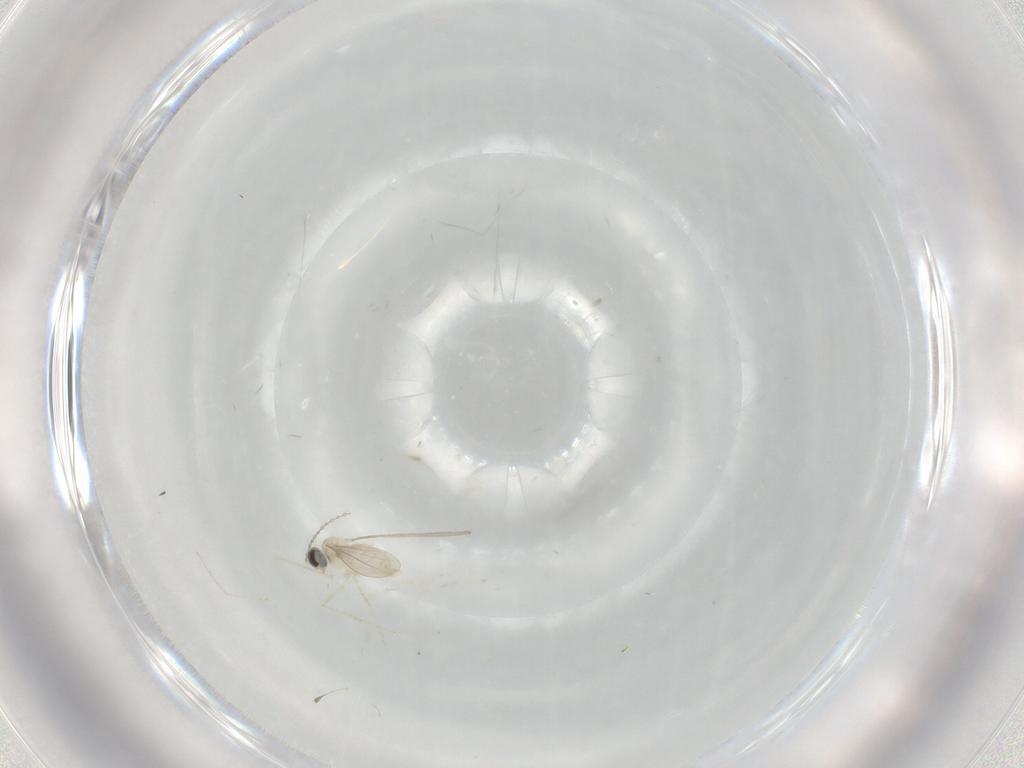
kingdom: Animalia
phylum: Arthropoda
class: Insecta
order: Diptera
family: Cecidomyiidae
